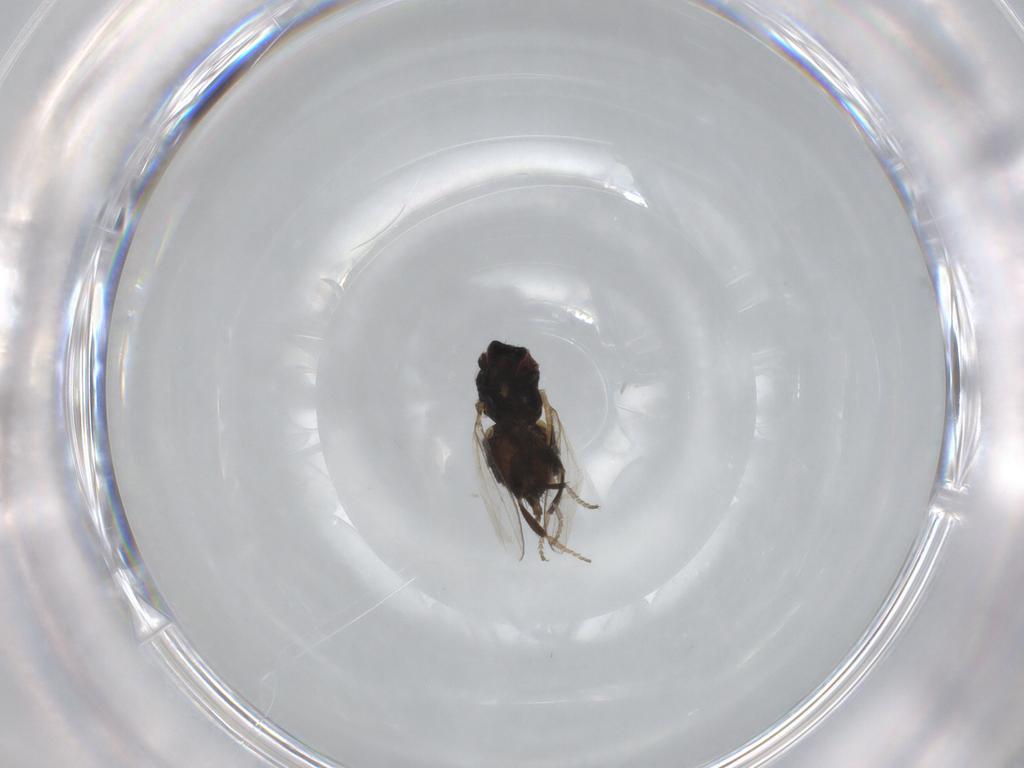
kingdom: Animalia
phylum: Arthropoda
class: Insecta
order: Diptera
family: Milichiidae
